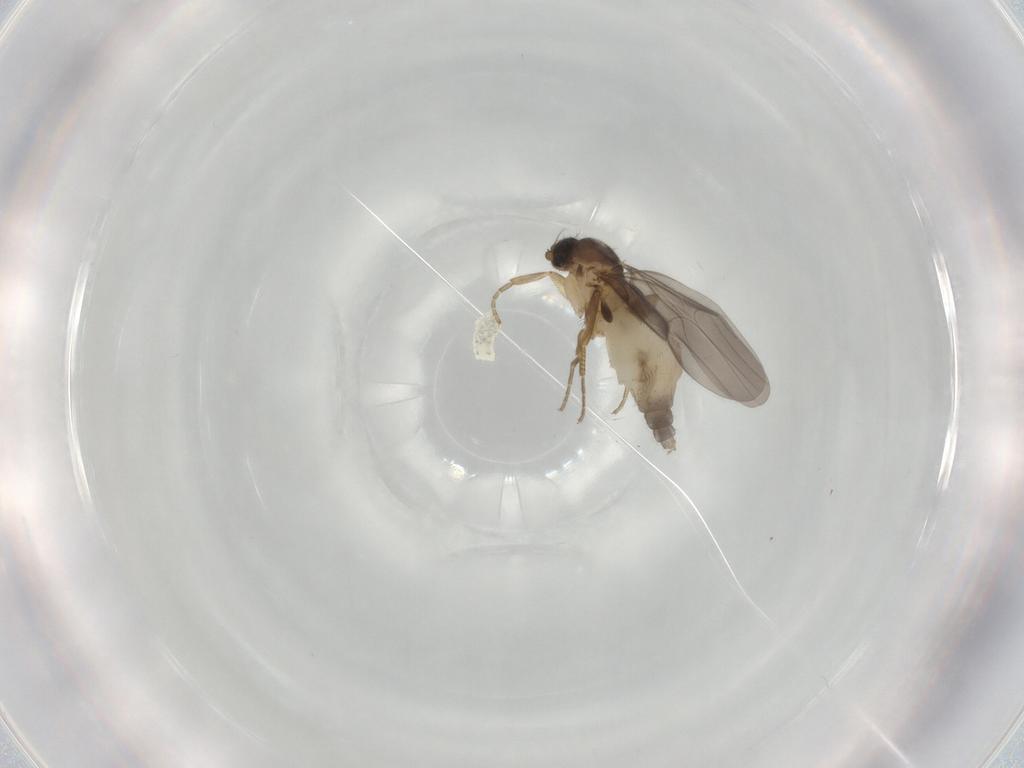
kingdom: Animalia
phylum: Arthropoda
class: Insecta
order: Diptera
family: Phoridae
